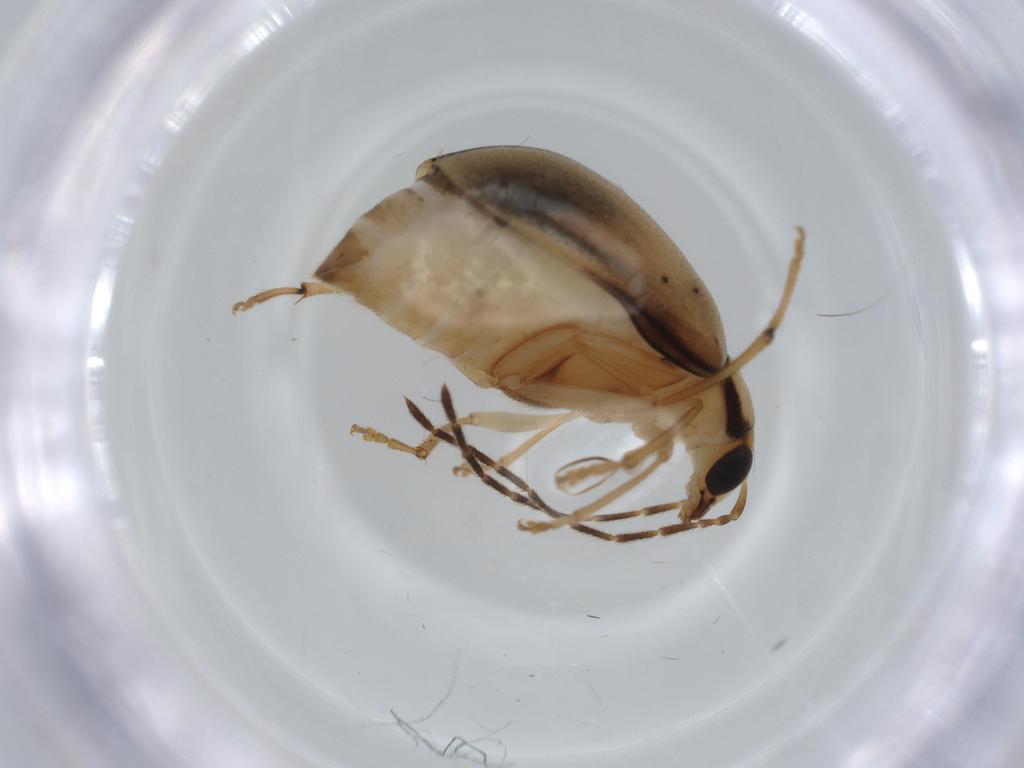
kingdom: Animalia
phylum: Arthropoda
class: Insecta
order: Coleoptera
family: Chrysomelidae
